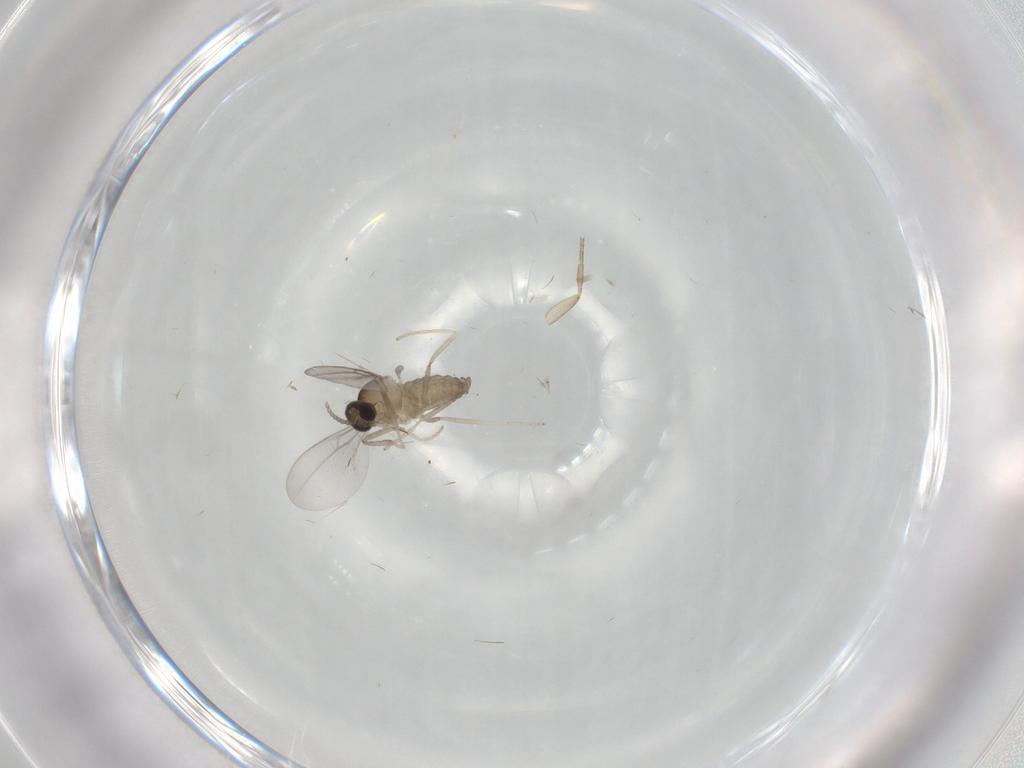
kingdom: Animalia
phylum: Arthropoda
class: Insecta
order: Diptera
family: Cecidomyiidae
